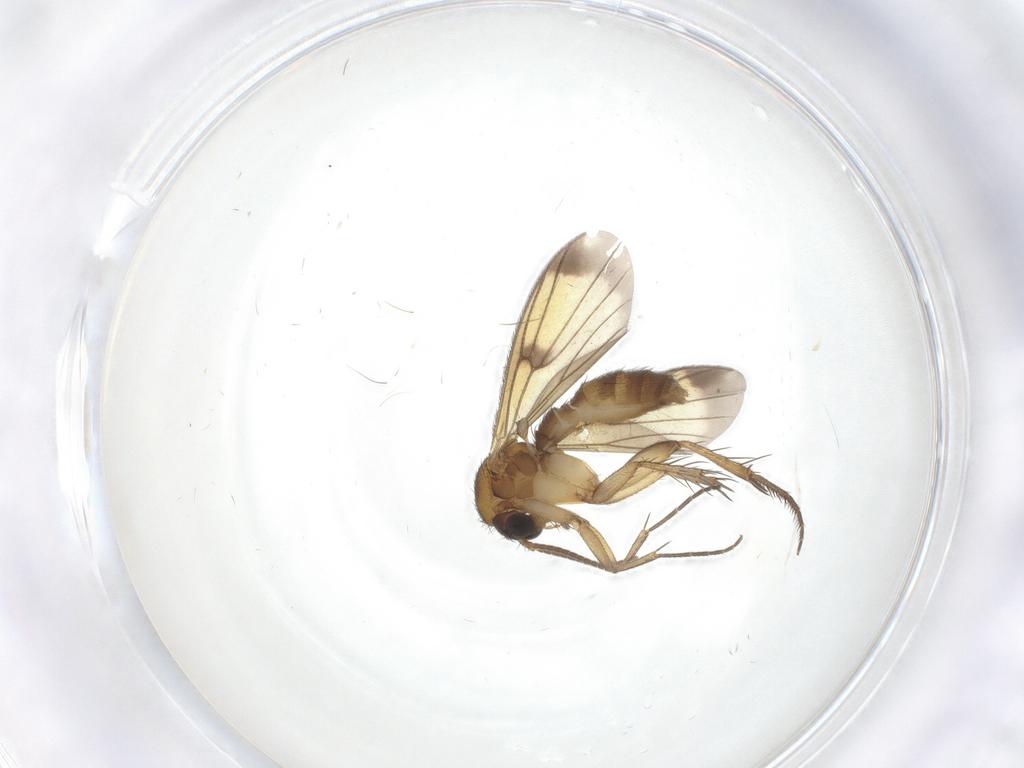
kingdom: Animalia
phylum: Arthropoda
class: Insecta
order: Diptera
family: Mycetophilidae
